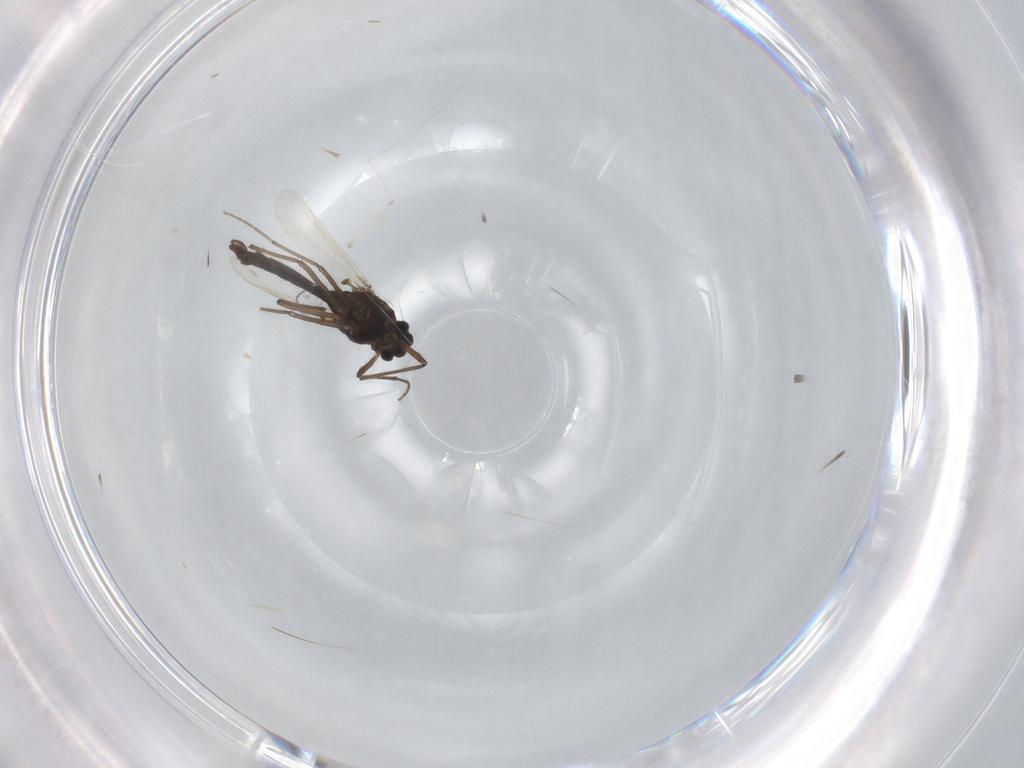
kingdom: Animalia
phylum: Arthropoda
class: Insecta
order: Diptera
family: Chironomidae
